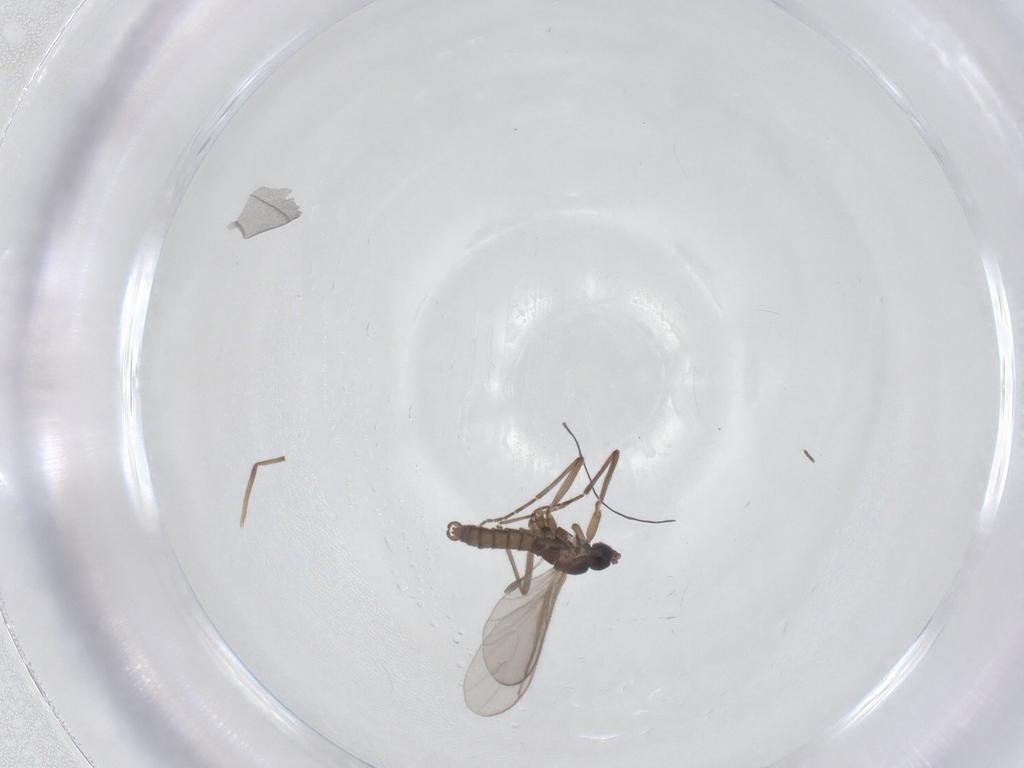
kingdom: Animalia
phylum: Arthropoda
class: Insecta
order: Diptera
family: Sciaridae
